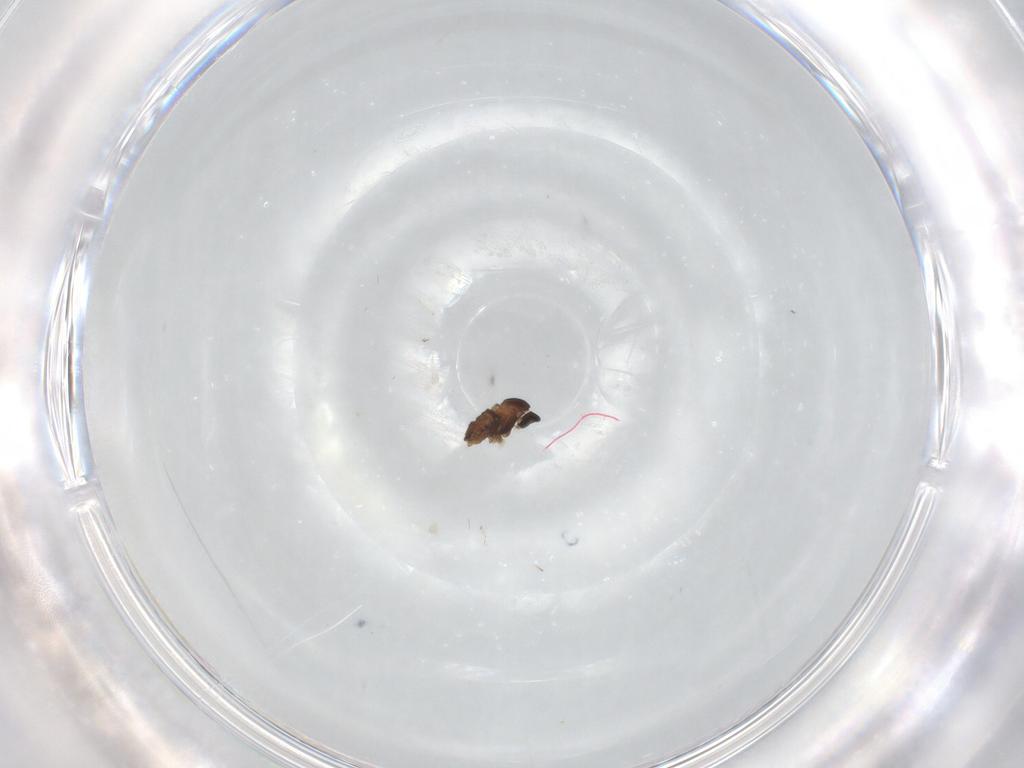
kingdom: Animalia
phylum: Arthropoda
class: Insecta
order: Diptera
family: Cecidomyiidae
